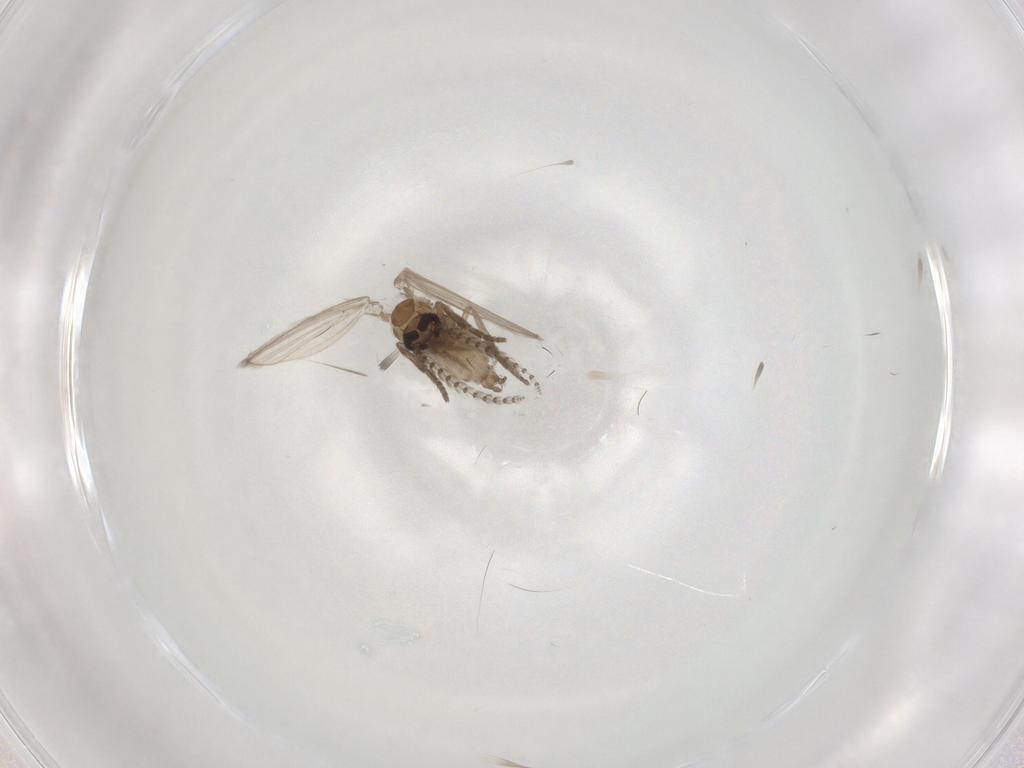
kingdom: Animalia
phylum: Arthropoda
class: Insecta
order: Diptera
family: Psychodidae
